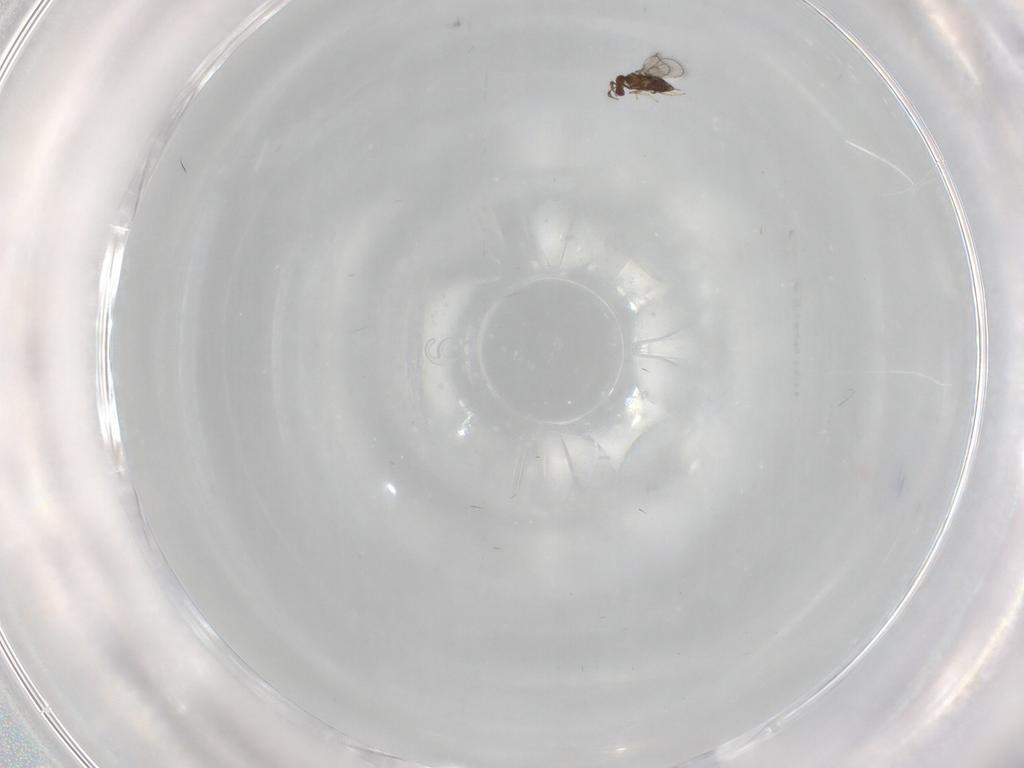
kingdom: Animalia
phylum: Arthropoda
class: Insecta
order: Hymenoptera
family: Trichogrammatidae
